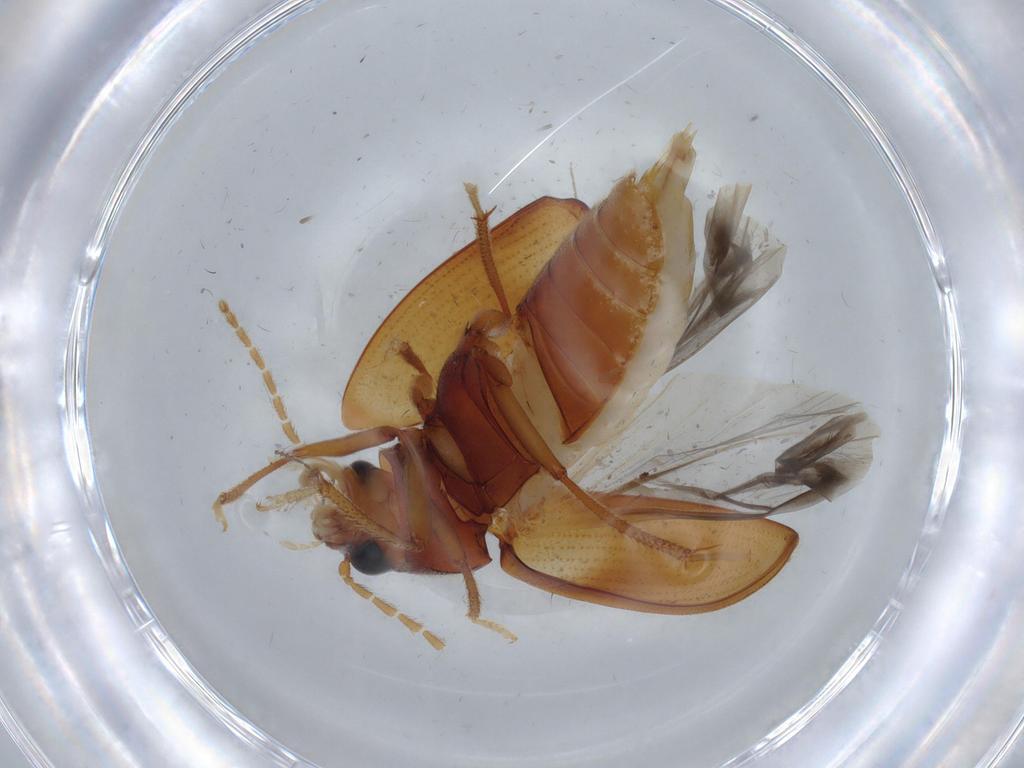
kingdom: Animalia
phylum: Arthropoda
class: Insecta
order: Coleoptera
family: Ptilodactylidae
